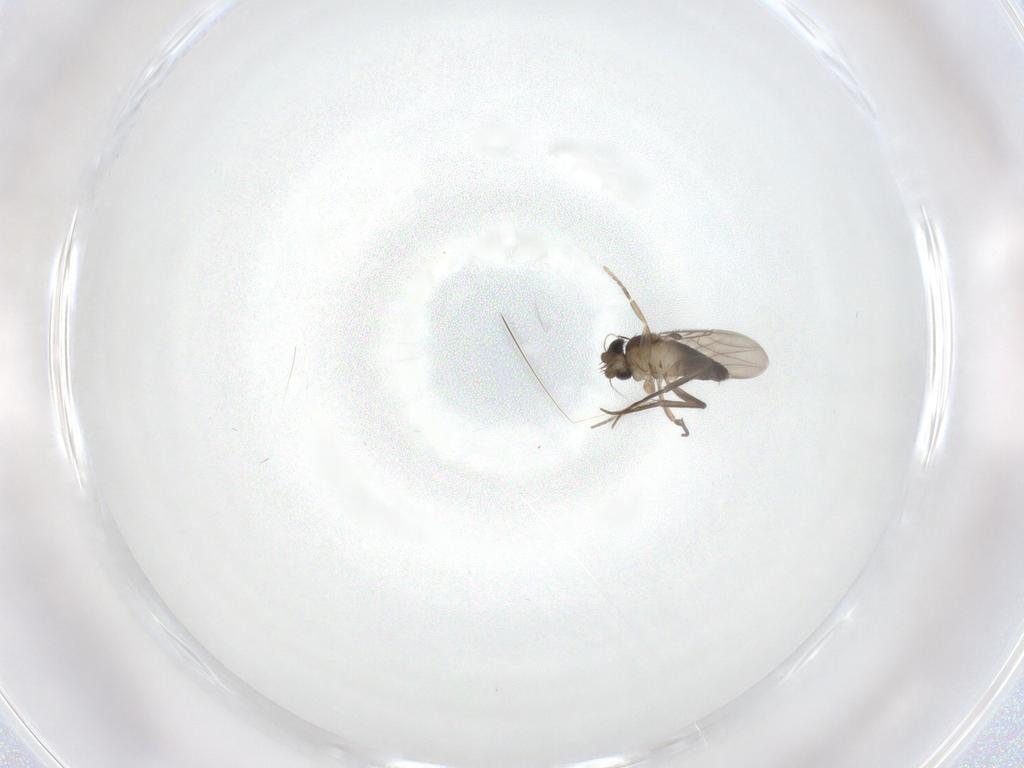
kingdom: Animalia
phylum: Arthropoda
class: Insecta
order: Diptera
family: Phoridae
